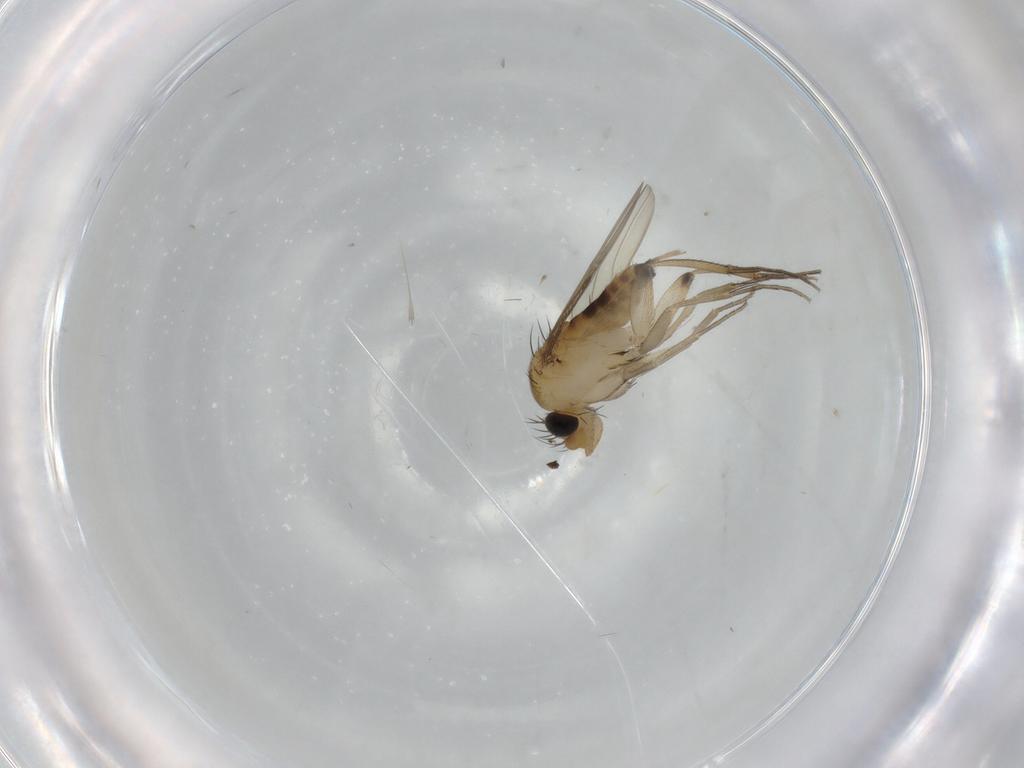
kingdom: Animalia
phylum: Arthropoda
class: Insecta
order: Diptera
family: Phoridae
